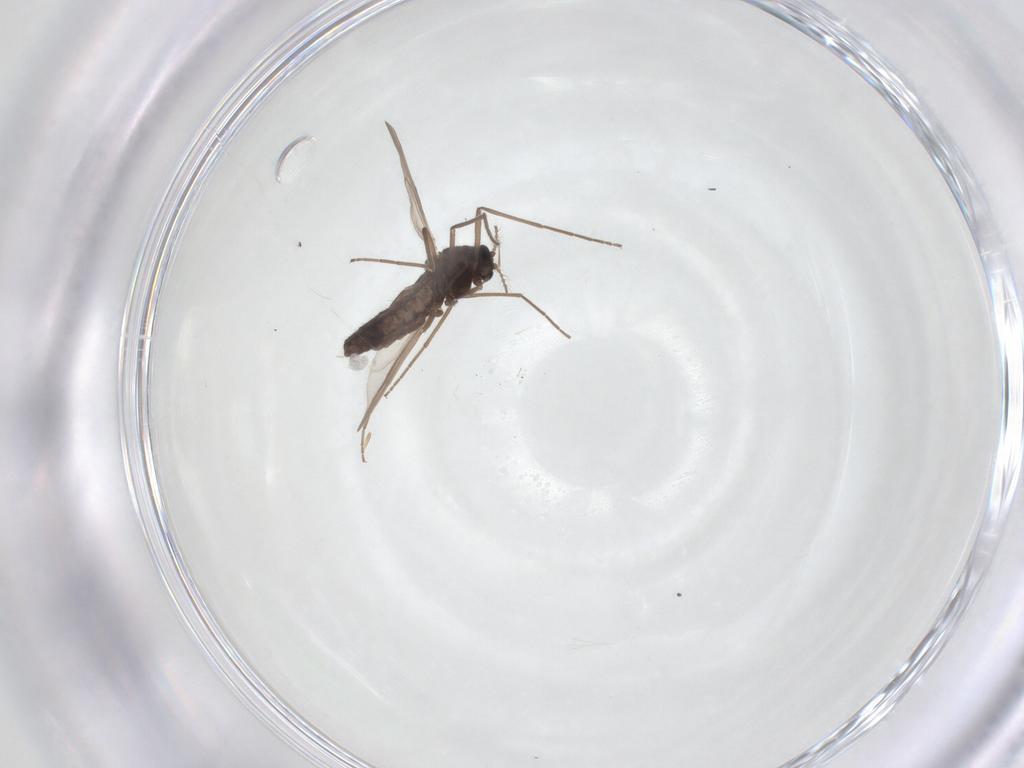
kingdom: Animalia
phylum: Arthropoda
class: Insecta
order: Diptera
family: Chironomidae
